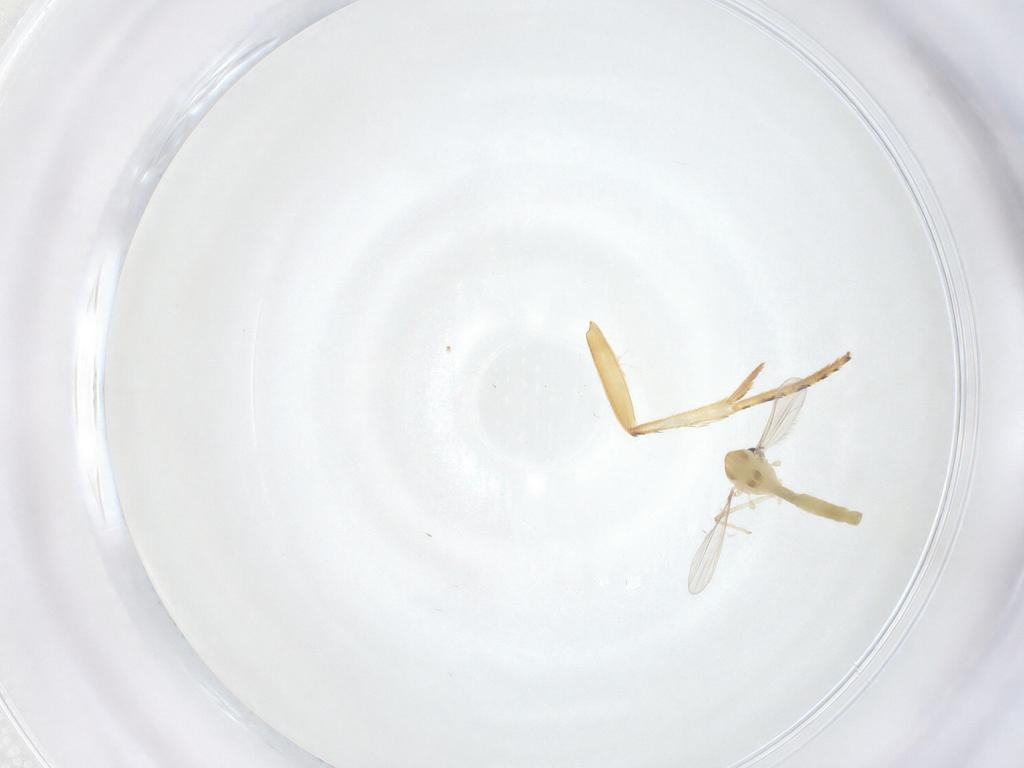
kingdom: Animalia
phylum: Arthropoda
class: Insecta
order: Diptera
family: Chironomidae
